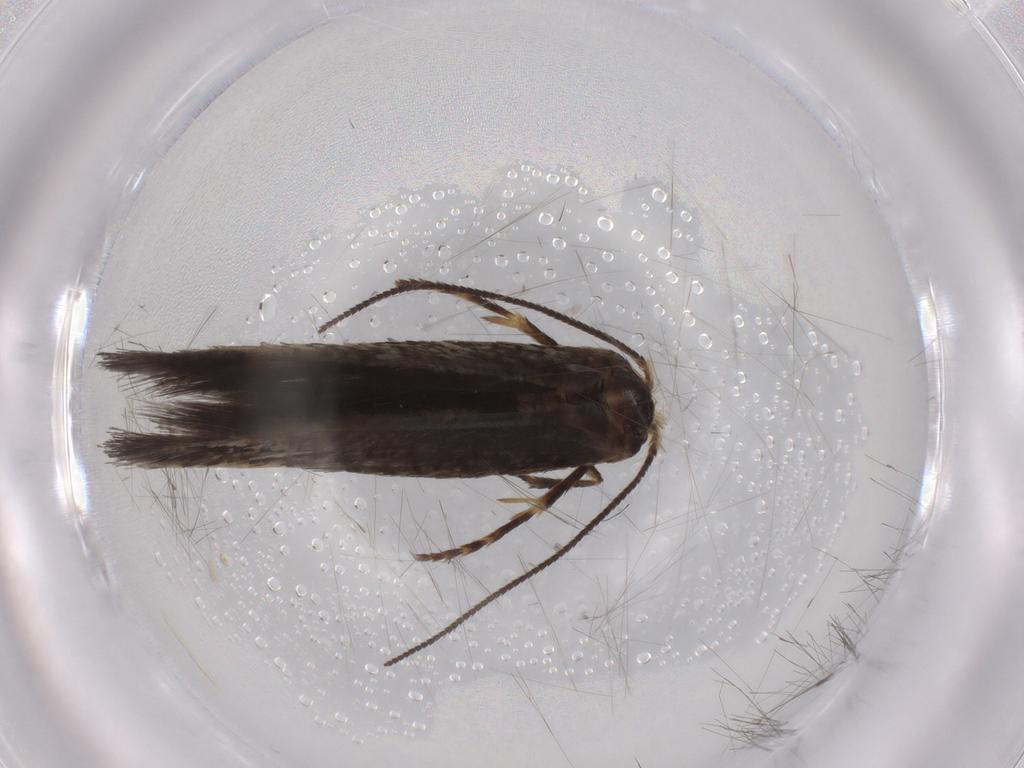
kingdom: Animalia
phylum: Arthropoda
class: Insecta
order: Lepidoptera
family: Nepticulidae
